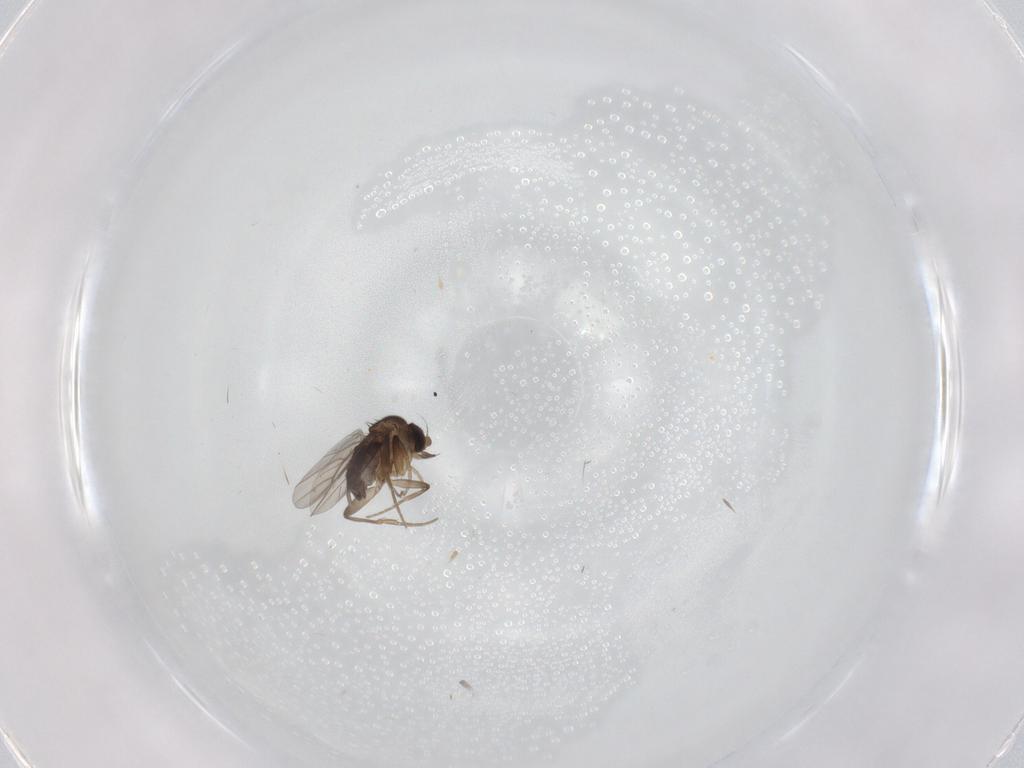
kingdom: Animalia
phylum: Arthropoda
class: Insecta
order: Diptera
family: Phoridae
